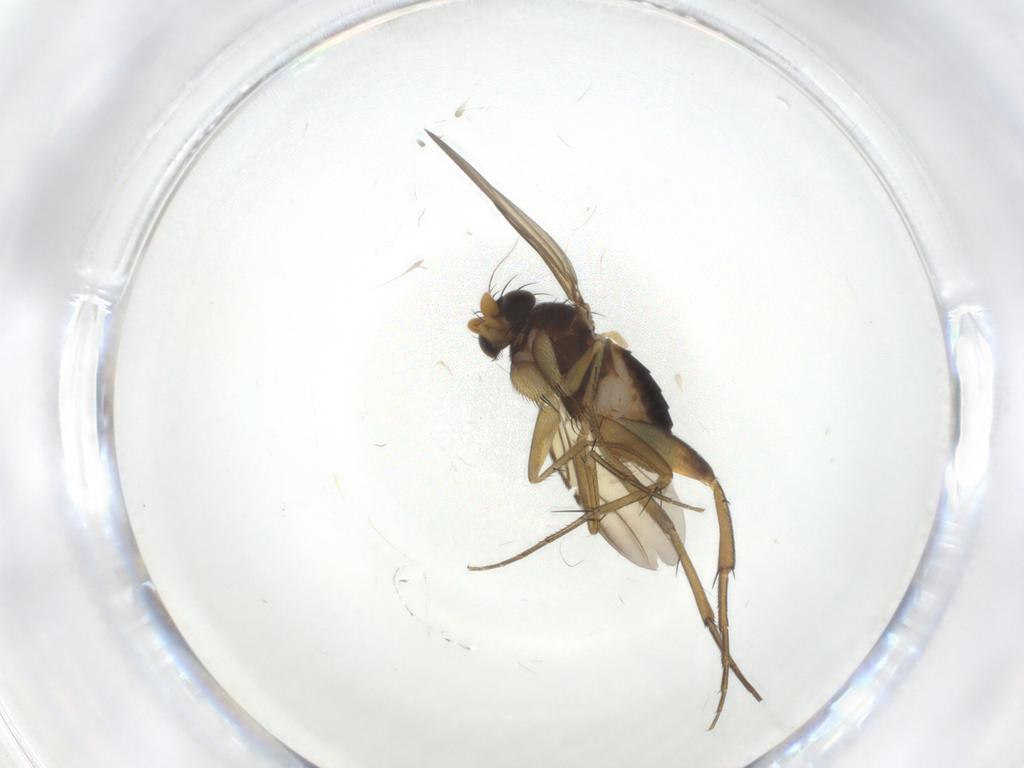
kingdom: Animalia
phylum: Arthropoda
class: Insecta
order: Diptera
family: Phoridae
